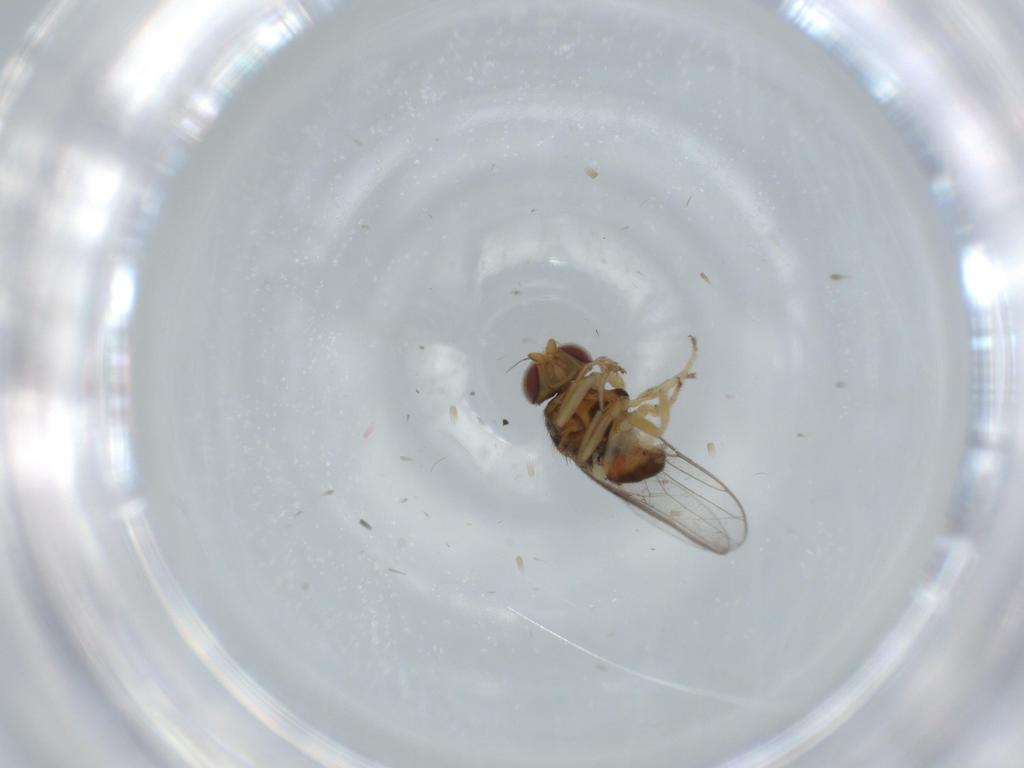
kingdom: Animalia
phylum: Arthropoda
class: Insecta
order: Diptera
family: Chloropidae
